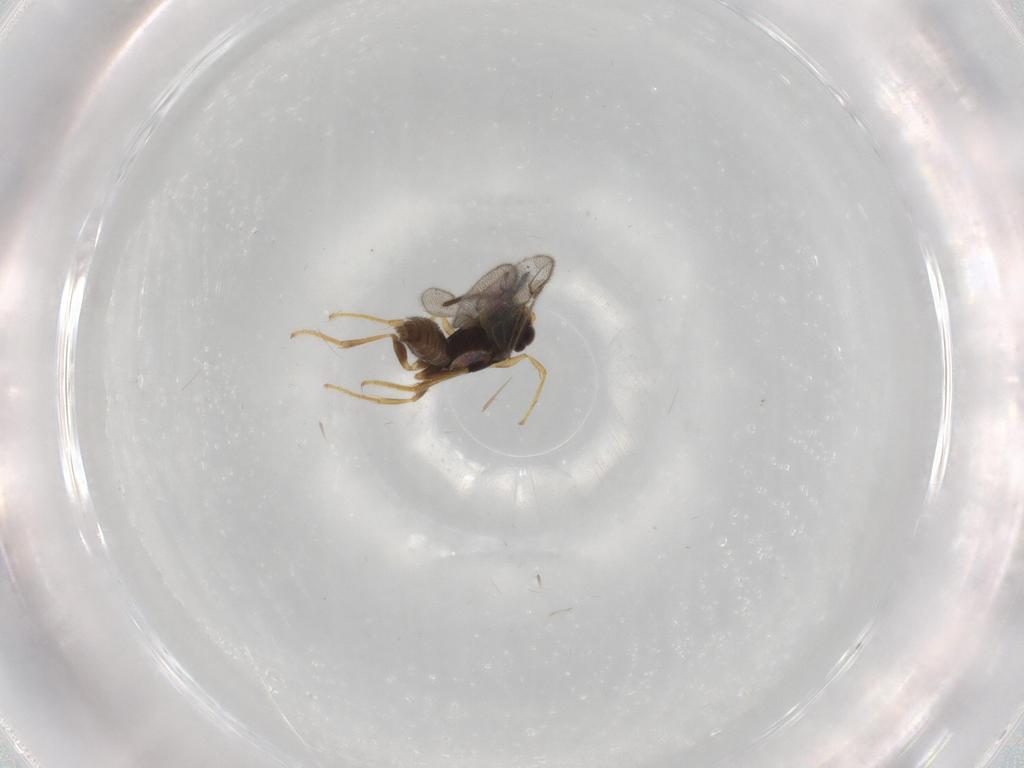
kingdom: Animalia
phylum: Arthropoda
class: Insecta
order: Hymenoptera
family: Dryinidae
